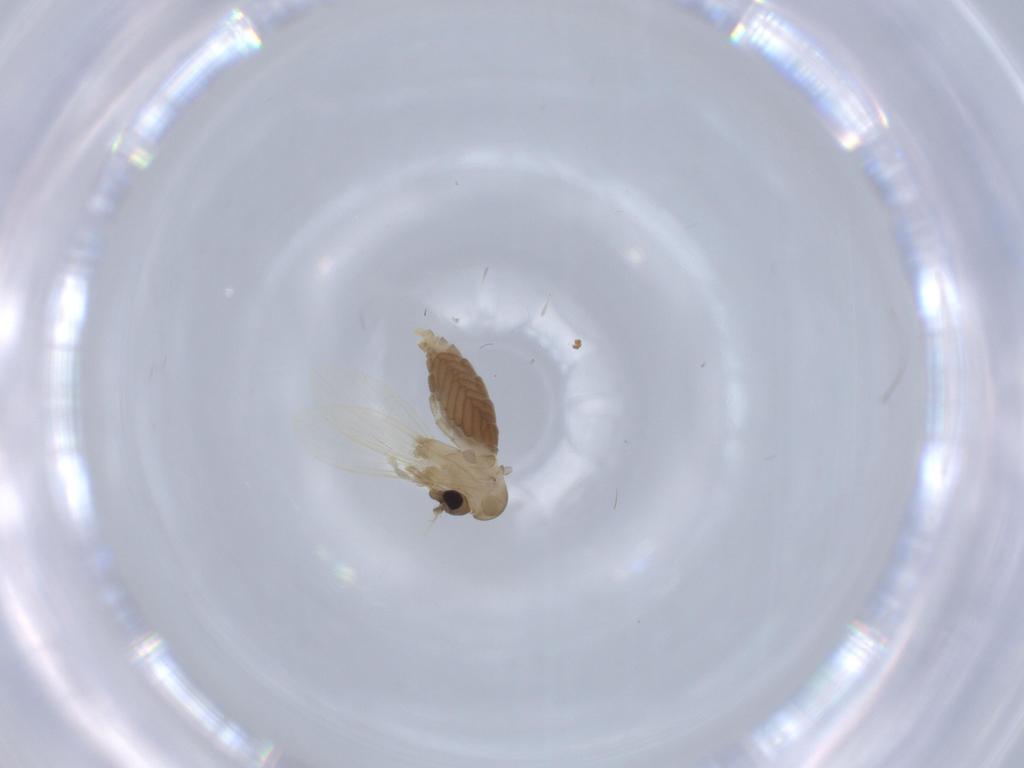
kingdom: Animalia
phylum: Arthropoda
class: Insecta
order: Diptera
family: Psychodidae
